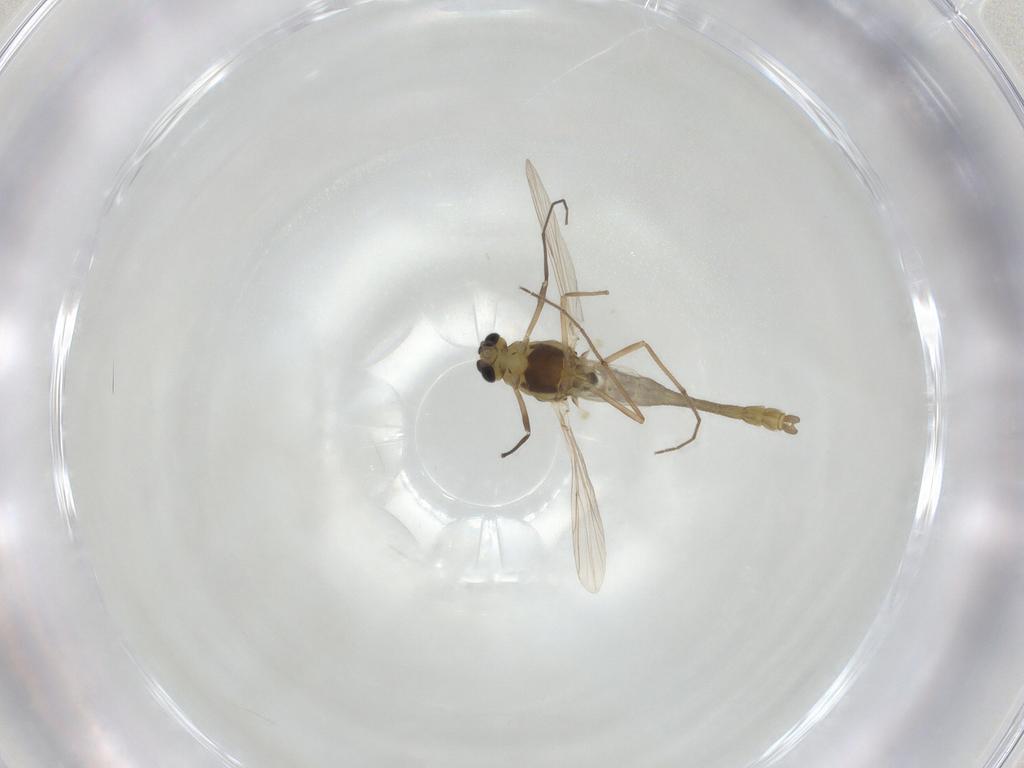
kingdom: Animalia
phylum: Arthropoda
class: Insecta
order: Diptera
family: Chironomidae
